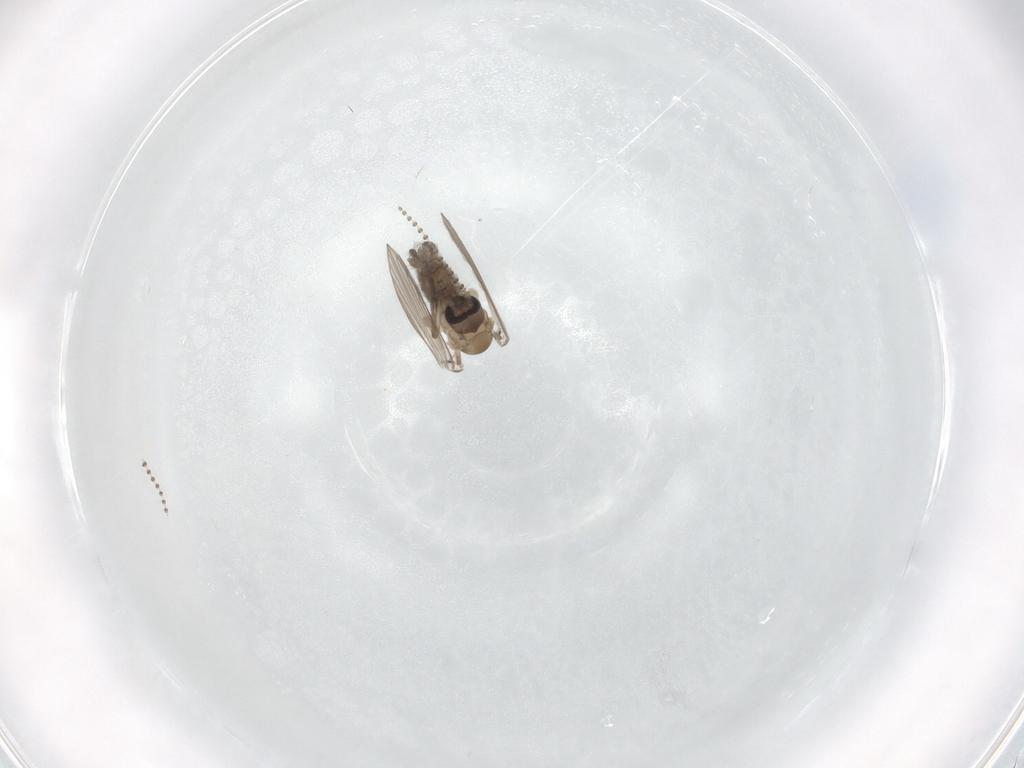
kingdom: Animalia
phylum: Arthropoda
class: Insecta
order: Diptera
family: Psychodidae
